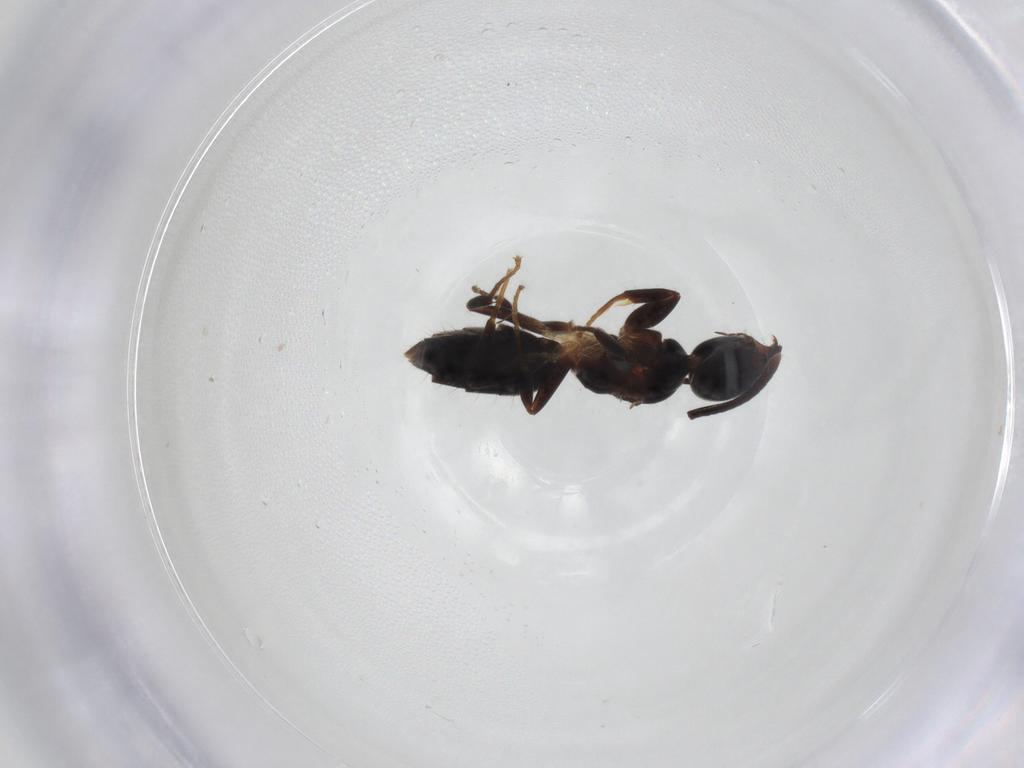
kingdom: Animalia
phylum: Arthropoda
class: Insecta
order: Hymenoptera
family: Formicidae
